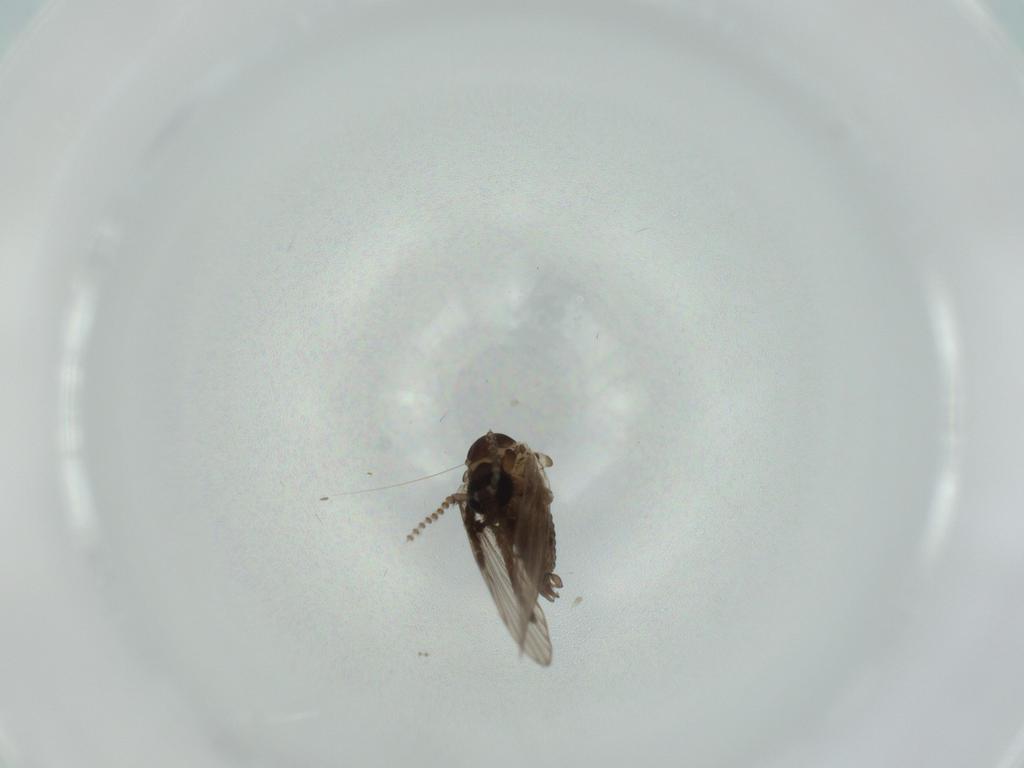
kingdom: Animalia
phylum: Arthropoda
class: Insecta
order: Diptera
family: Psychodidae
